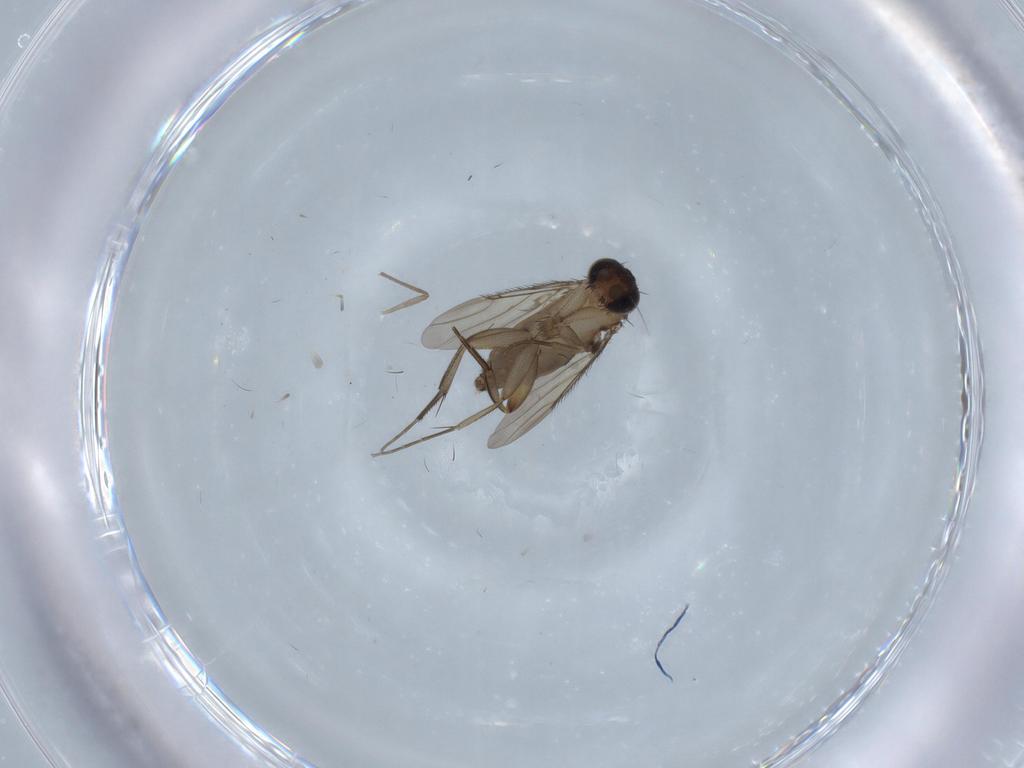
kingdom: Animalia
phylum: Arthropoda
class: Insecta
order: Diptera
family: Phoridae
